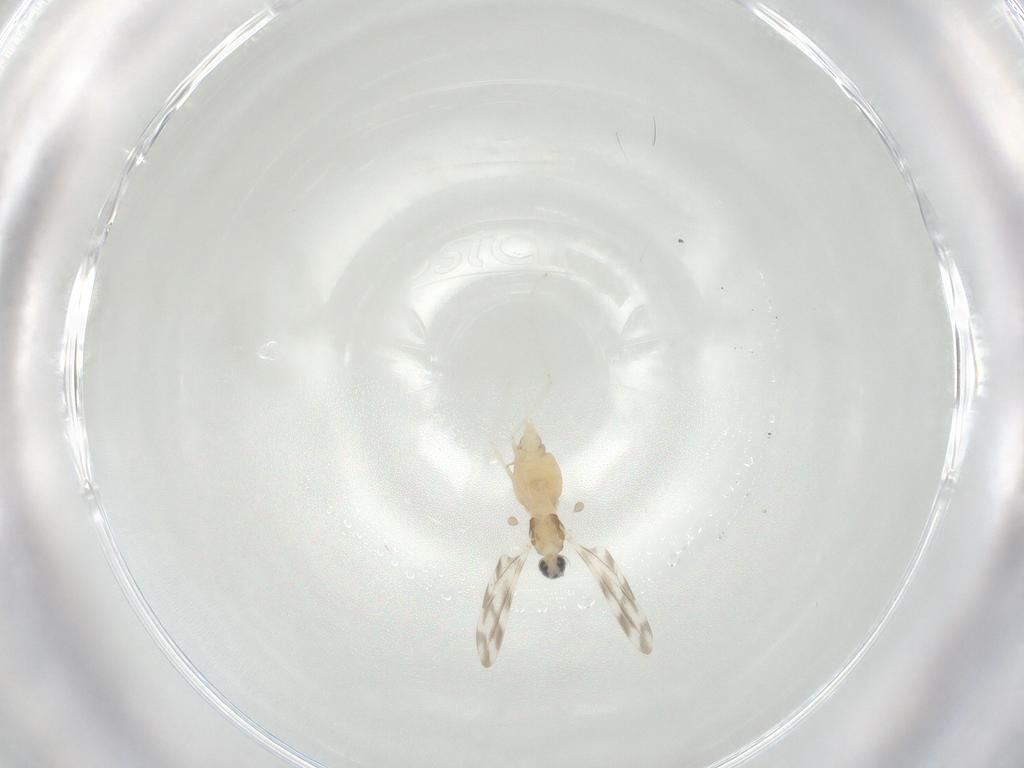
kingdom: Animalia
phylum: Arthropoda
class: Insecta
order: Diptera
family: Cecidomyiidae
